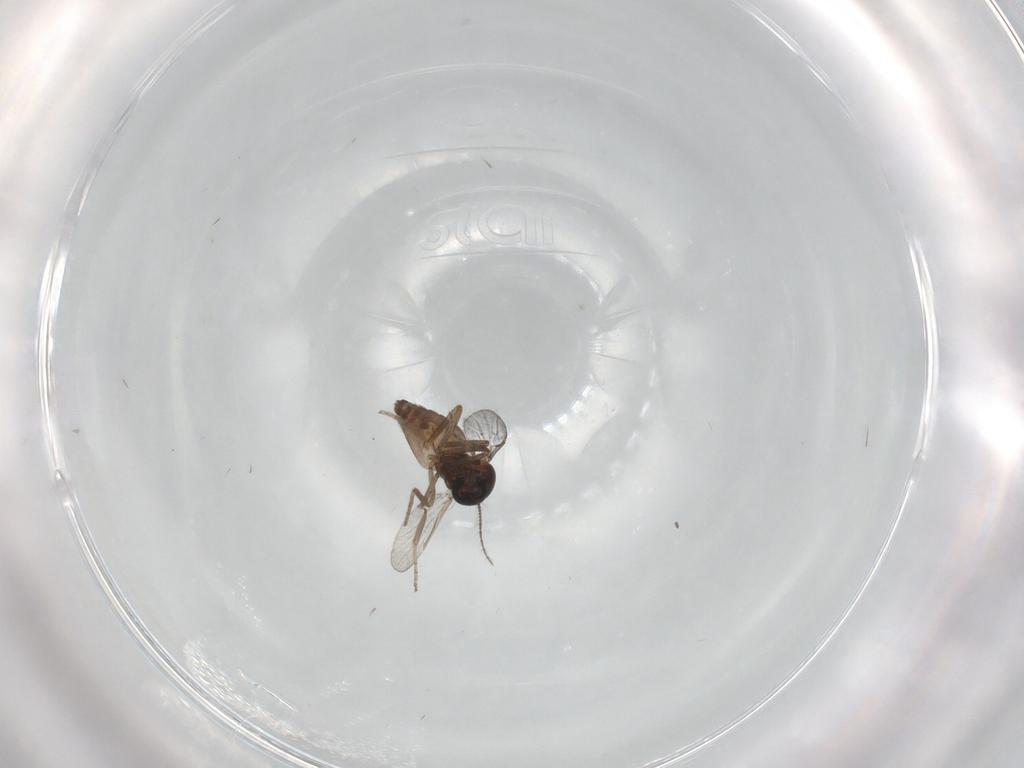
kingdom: Animalia
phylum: Arthropoda
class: Insecta
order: Diptera
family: Ceratopogonidae
